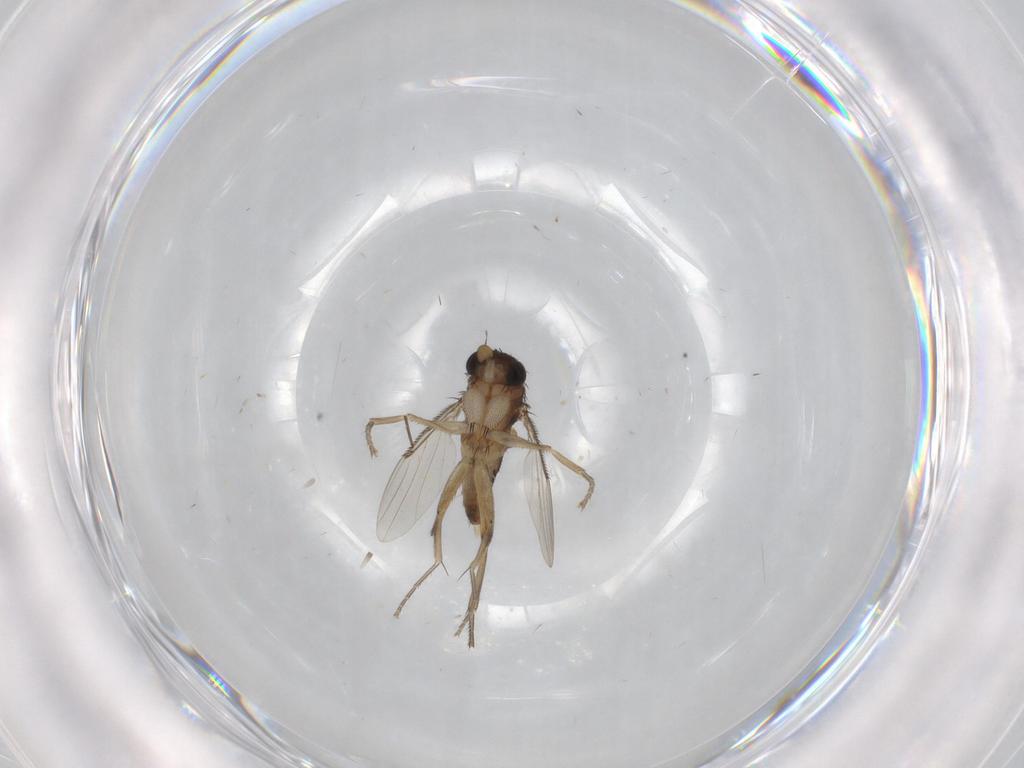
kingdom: Animalia
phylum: Arthropoda
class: Insecta
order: Diptera
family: Phoridae
